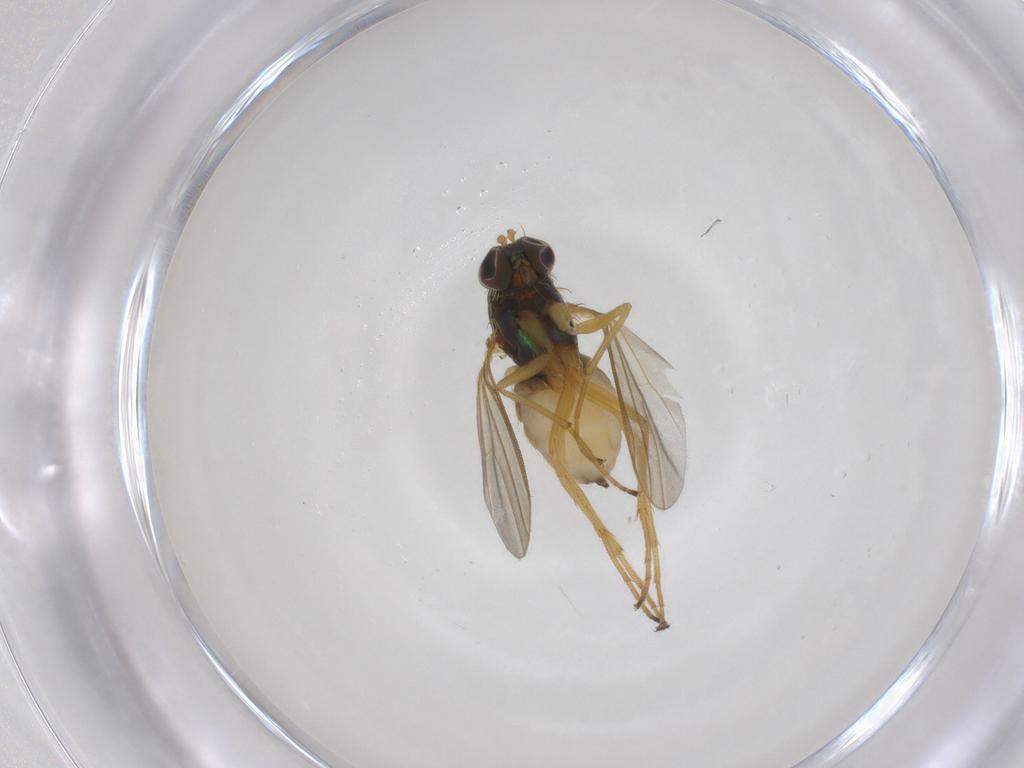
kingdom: Animalia
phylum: Arthropoda
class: Insecta
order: Diptera
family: Dolichopodidae
